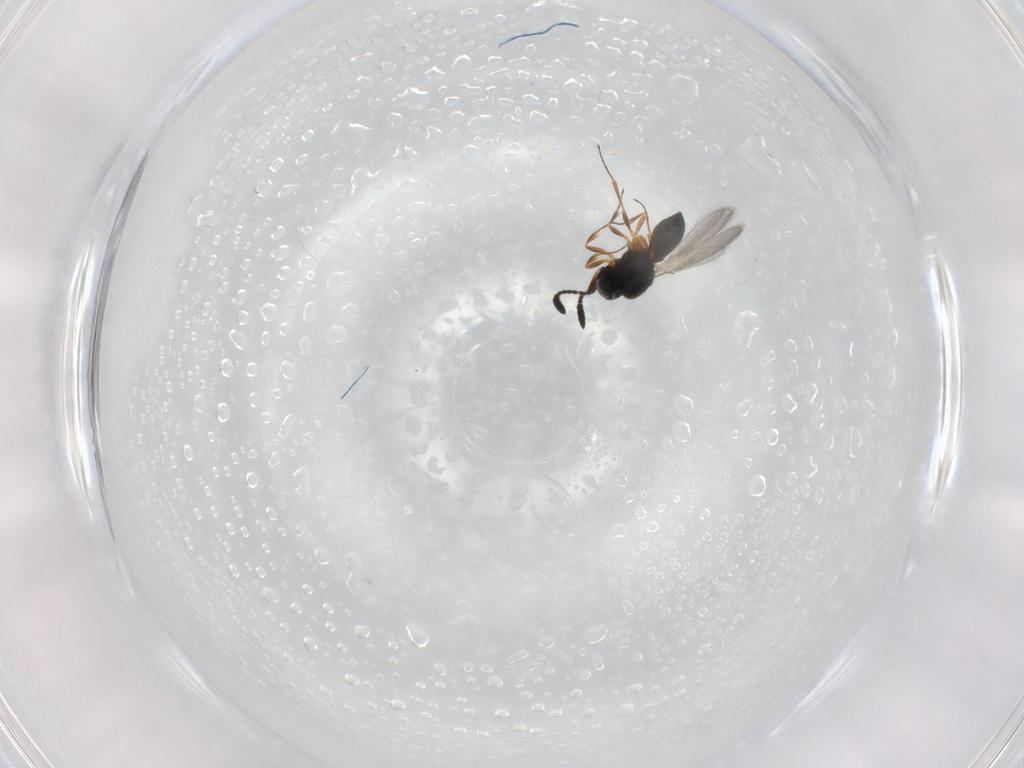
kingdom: Animalia
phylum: Arthropoda
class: Insecta
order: Hymenoptera
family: Scelionidae
